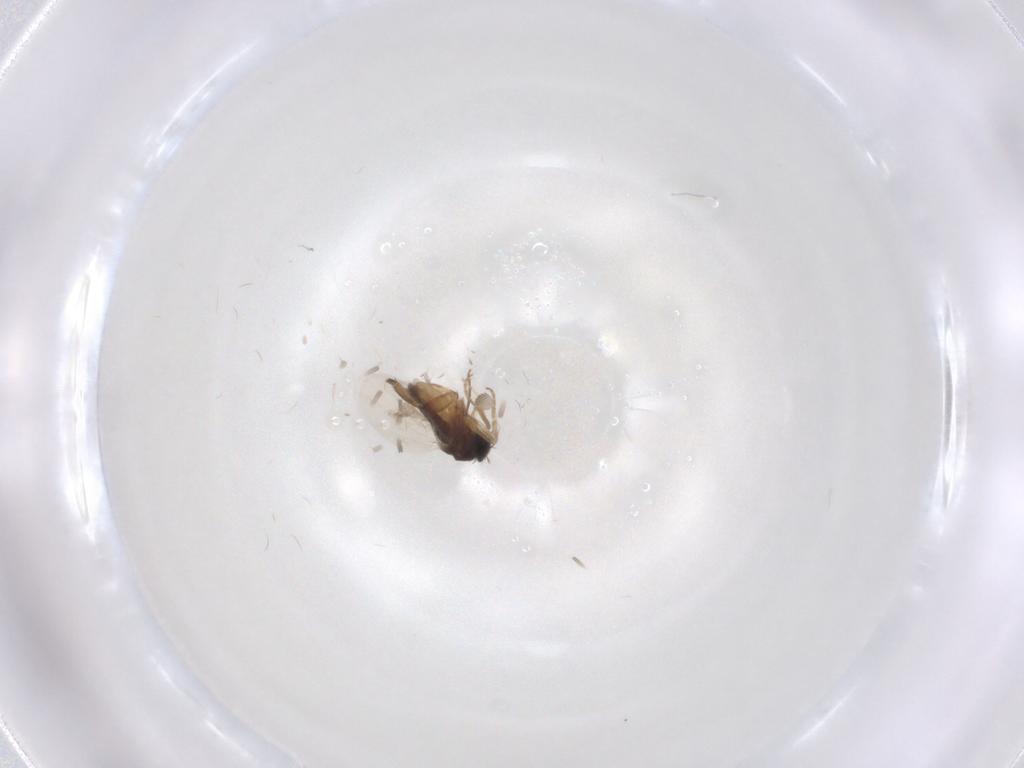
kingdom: Animalia
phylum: Arthropoda
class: Insecta
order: Diptera
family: Phoridae
